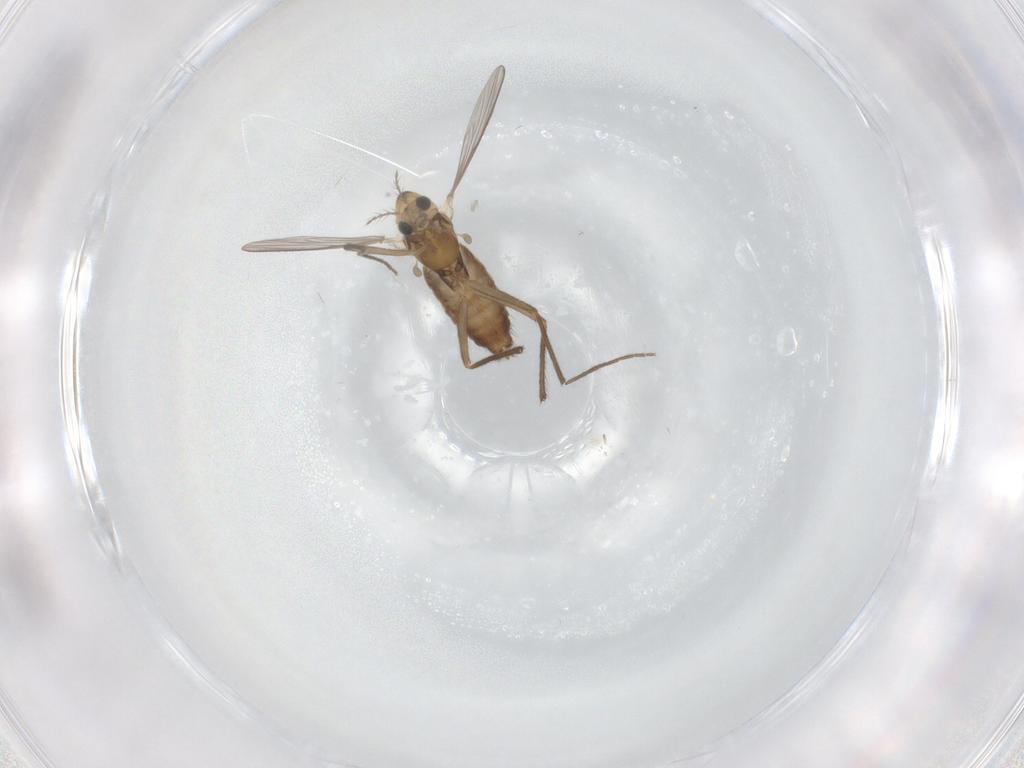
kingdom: Animalia
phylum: Arthropoda
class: Insecta
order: Diptera
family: Chironomidae
